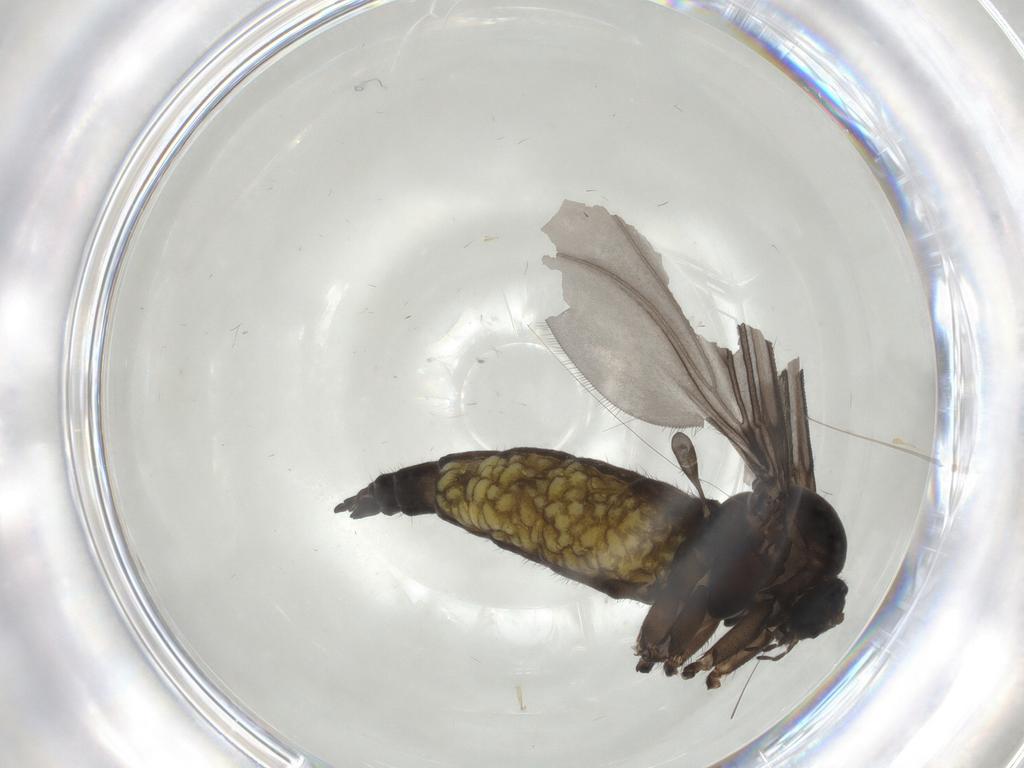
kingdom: Animalia
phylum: Arthropoda
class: Insecta
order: Diptera
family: Sciaridae
